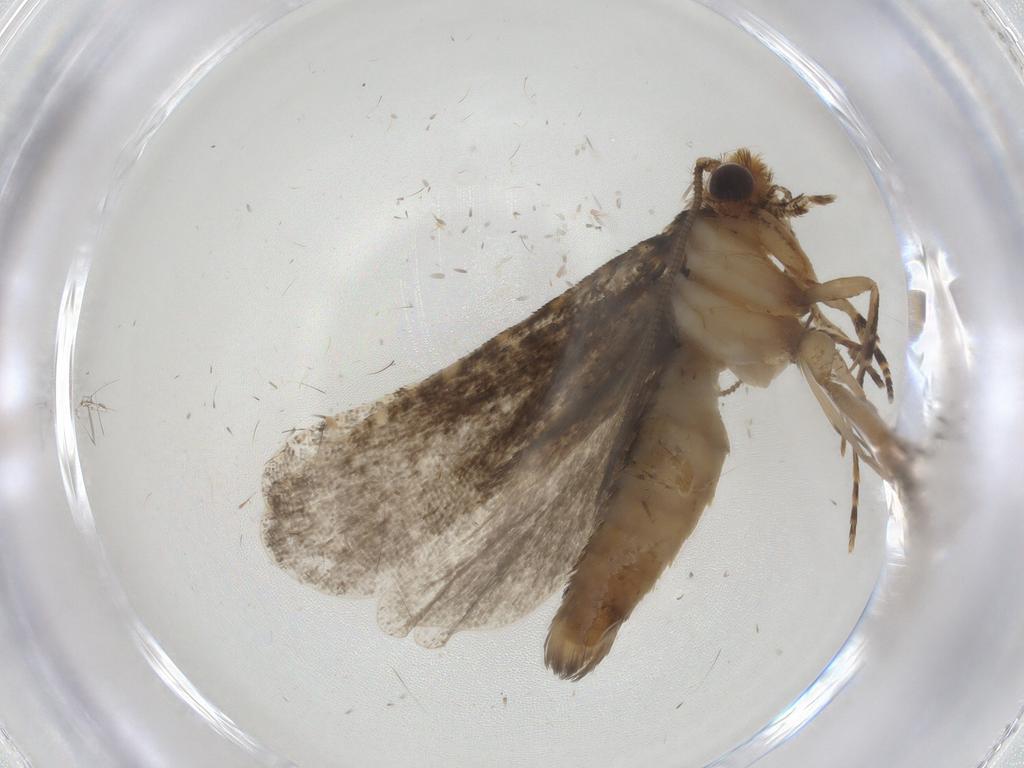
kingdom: Animalia
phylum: Arthropoda
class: Insecta
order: Lepidoptera
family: Tineidae
